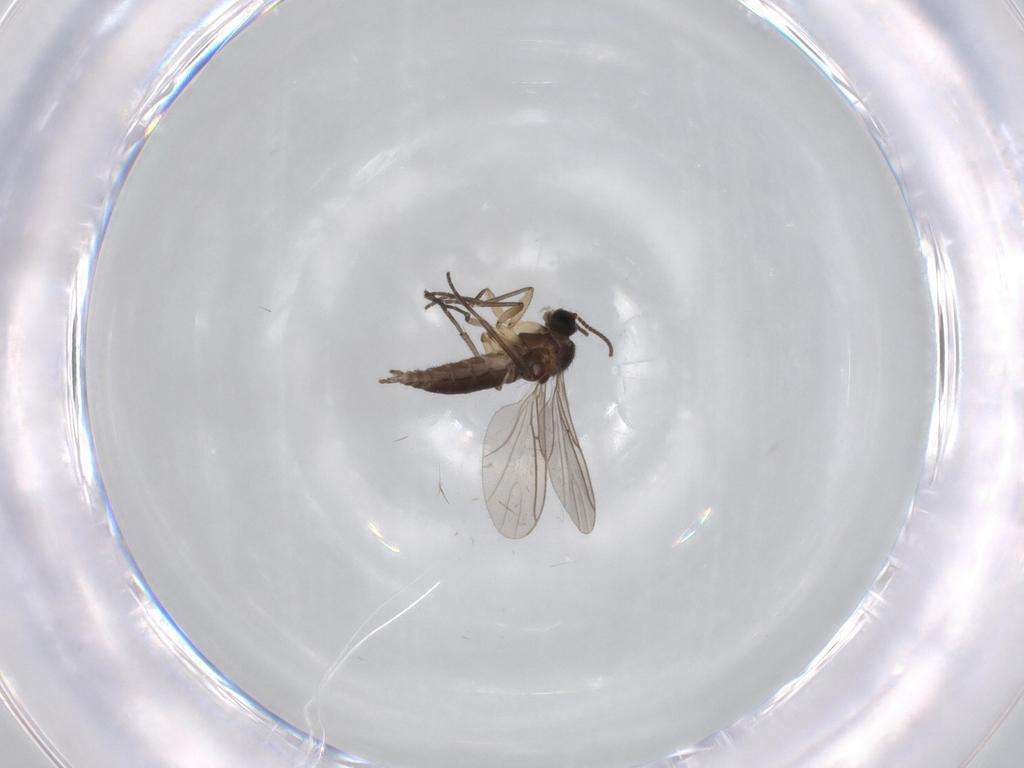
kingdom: Animalia
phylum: Arthropoda
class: Insecta
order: Diptera
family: Sciaridae
